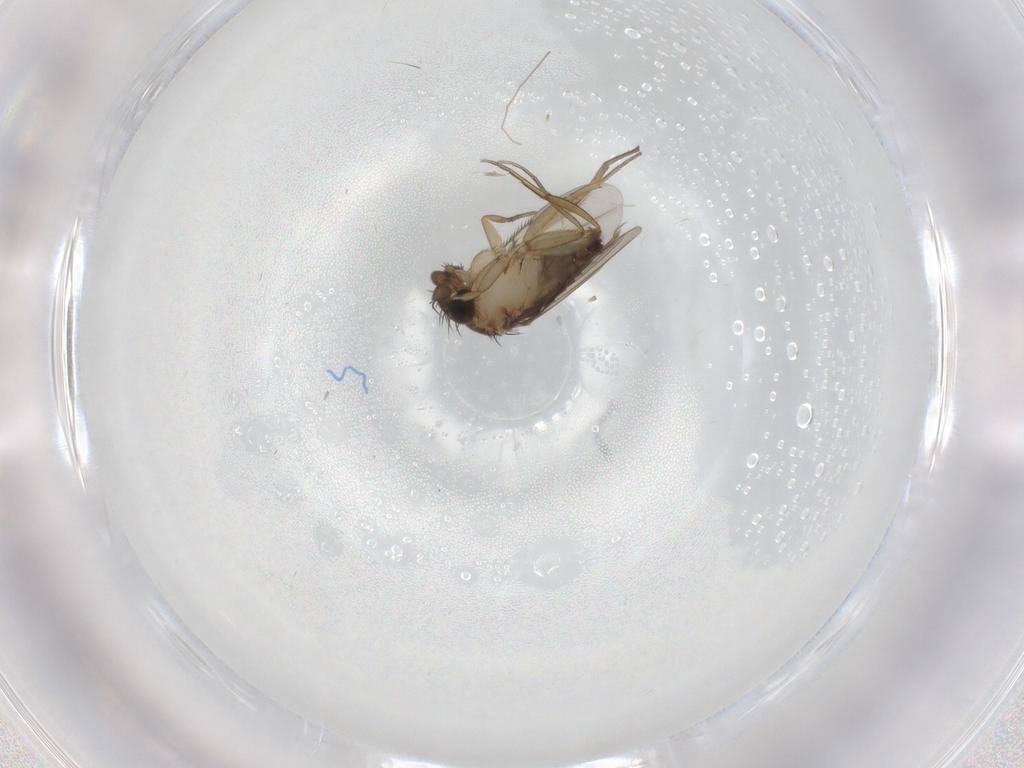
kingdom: Animalia
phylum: Arthropoda
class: Insecta
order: Diptera
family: Phoridae
